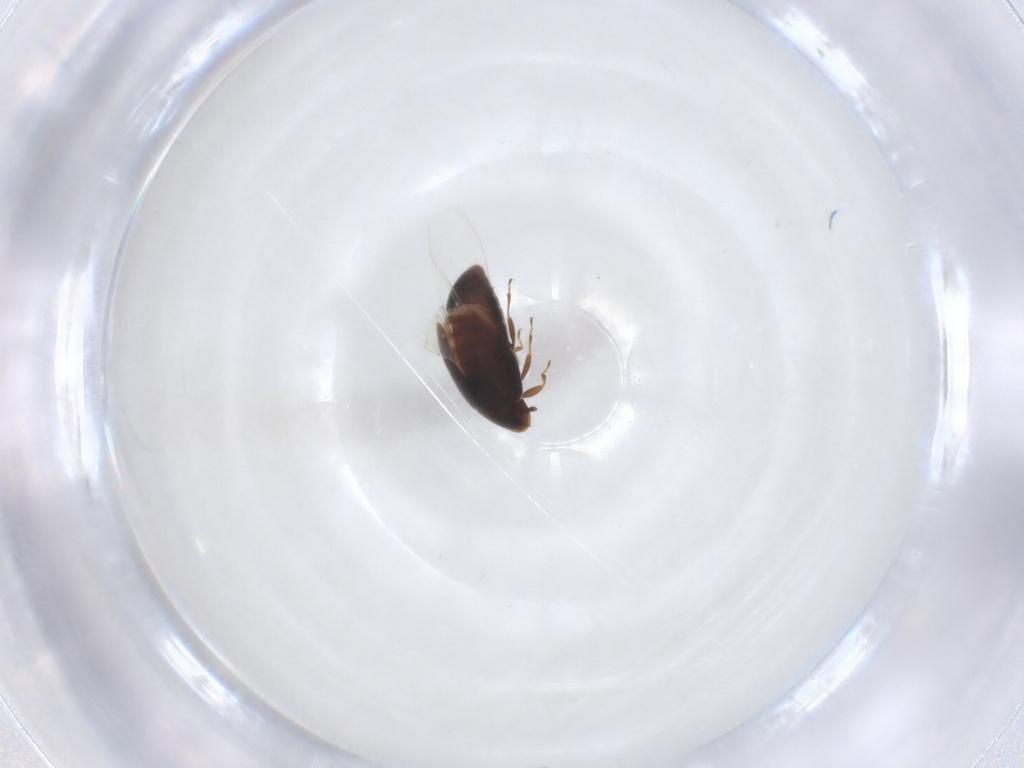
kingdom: Animalia
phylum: Arthropoda
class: Insecta
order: Coleoptera
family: Corylophidae
